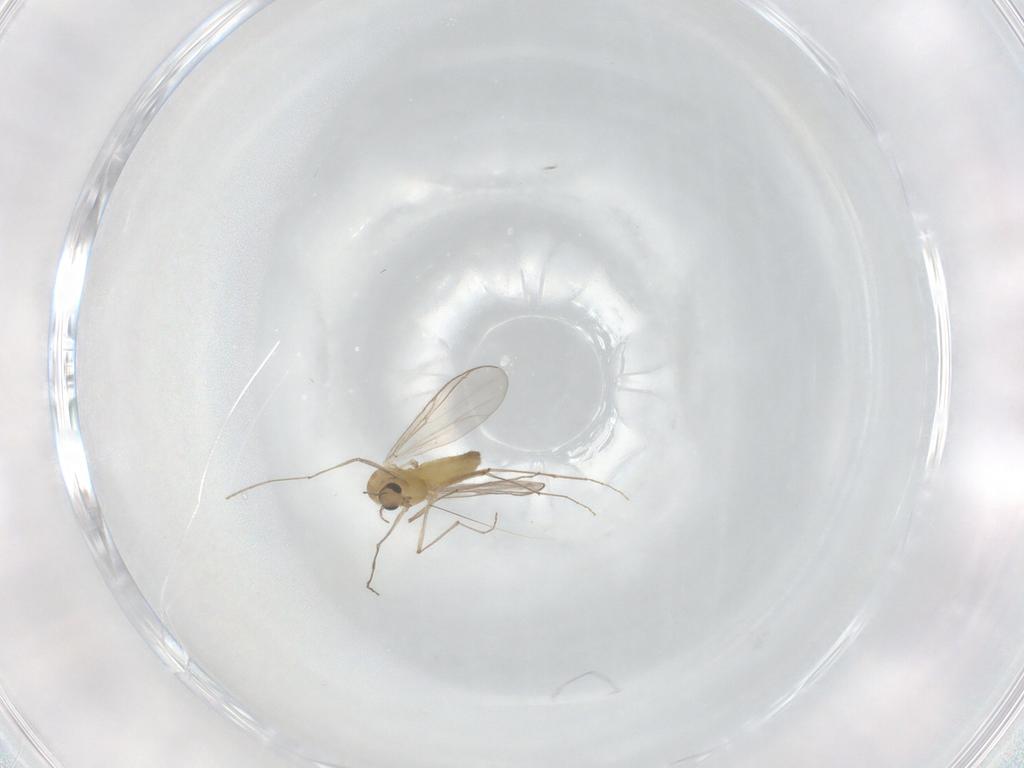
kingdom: Animalia
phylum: Arthropoda
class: Insecta
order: Diptera
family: Chironomidae
